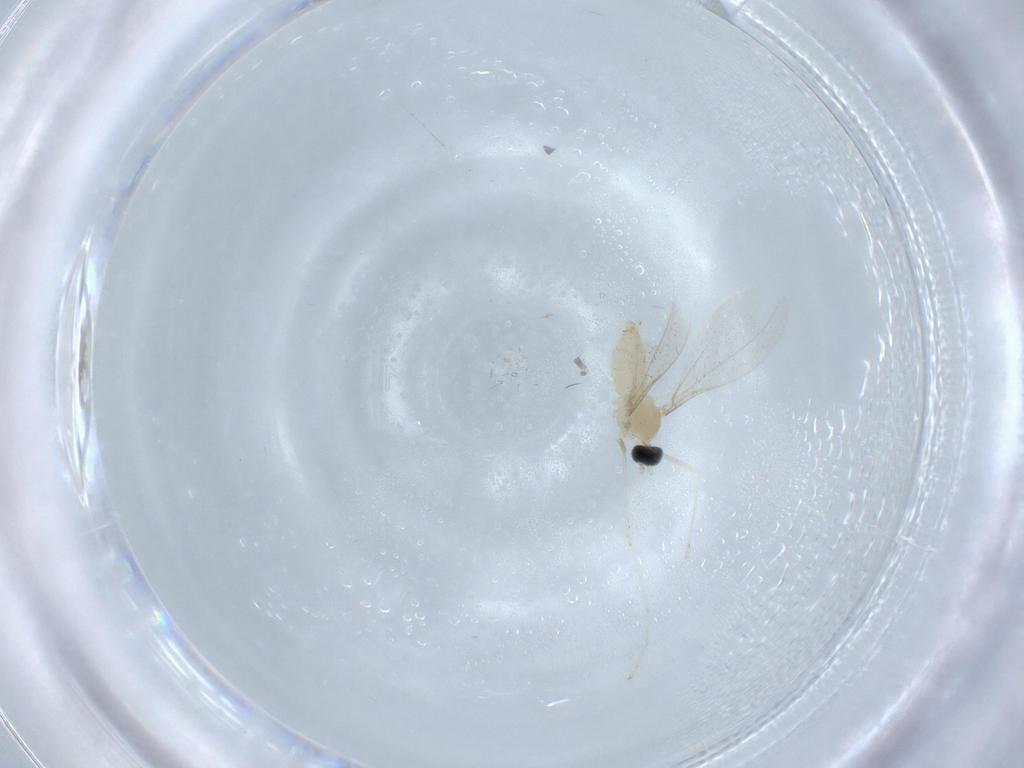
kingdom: Animalia
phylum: Arthropoda
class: Insecta
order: Diptera
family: Cecidomyiidae
